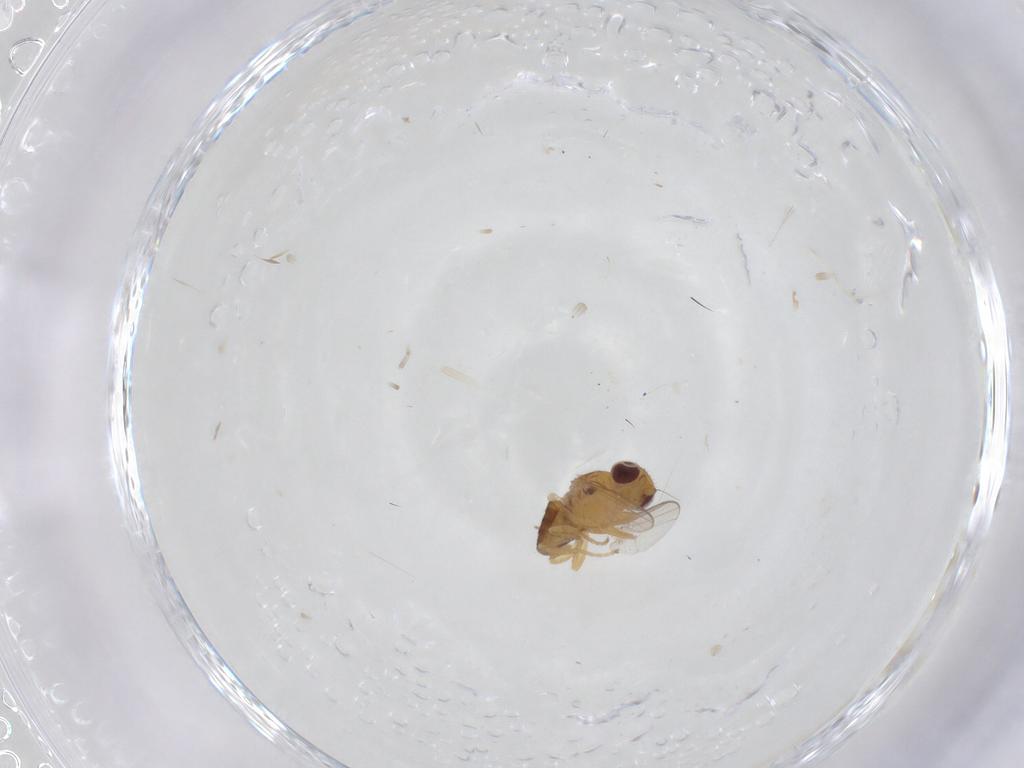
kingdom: Animalia
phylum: Arthropoda
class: Insecta
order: Diptera
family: Chloropidae
